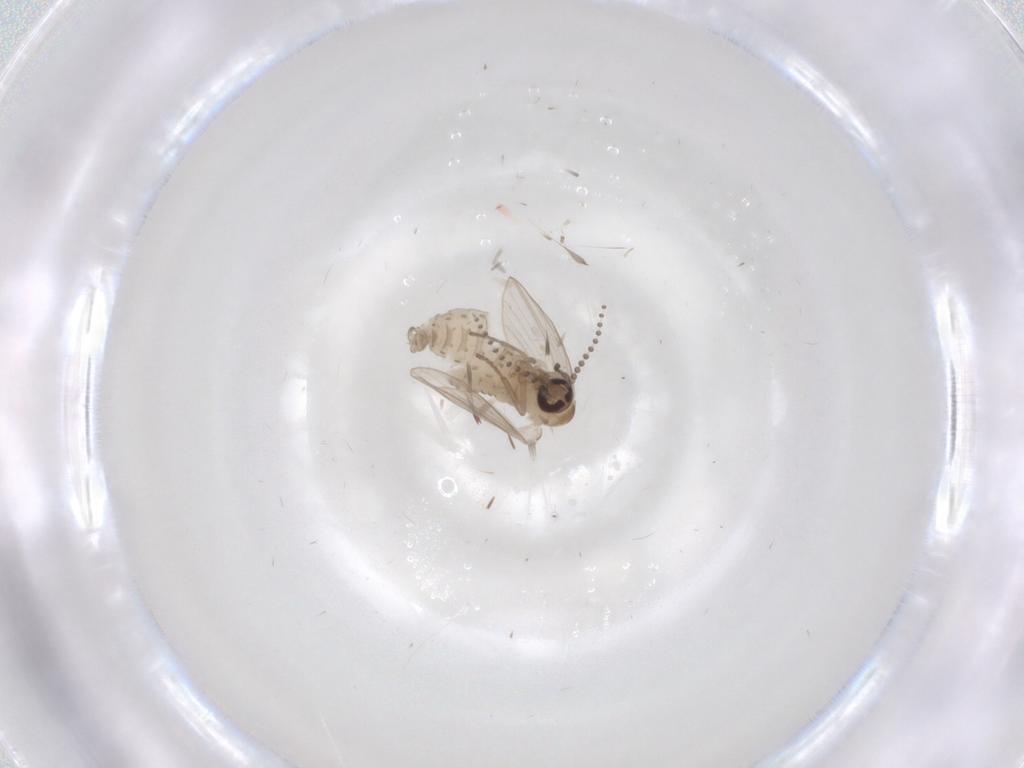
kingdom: Animalia
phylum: Arthropoda
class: Insecta
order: Diptera
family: Psychodidae
